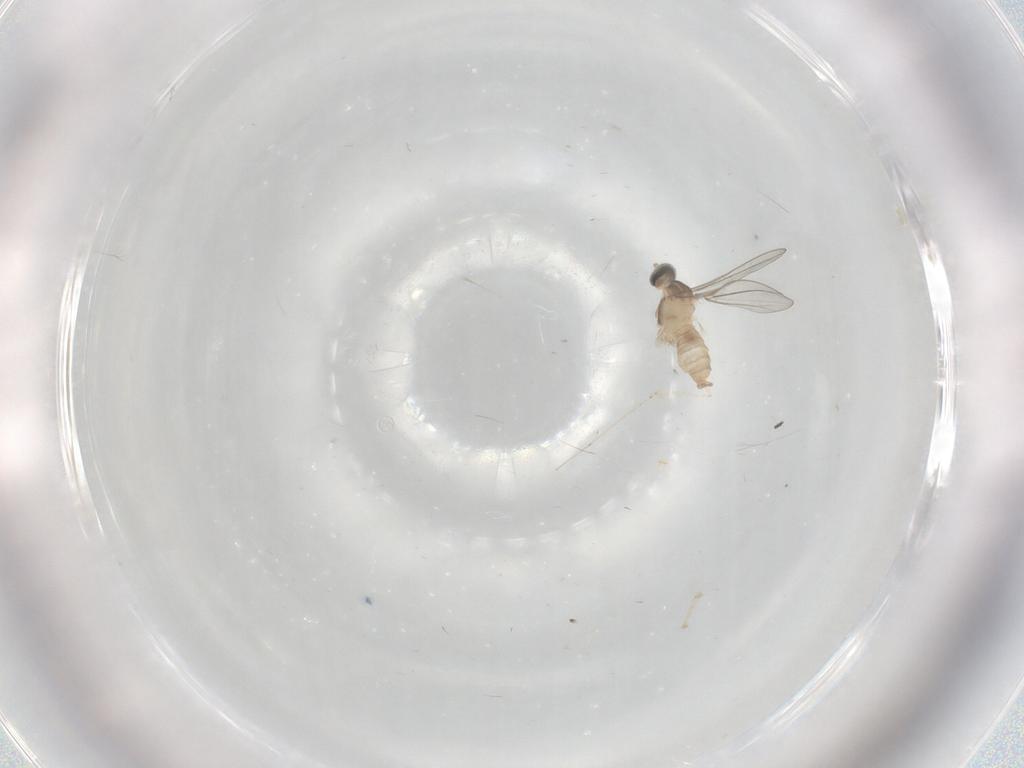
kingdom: Animalia
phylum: Arthropoda
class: Insecta
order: Diptera
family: Cecidomyiidae
